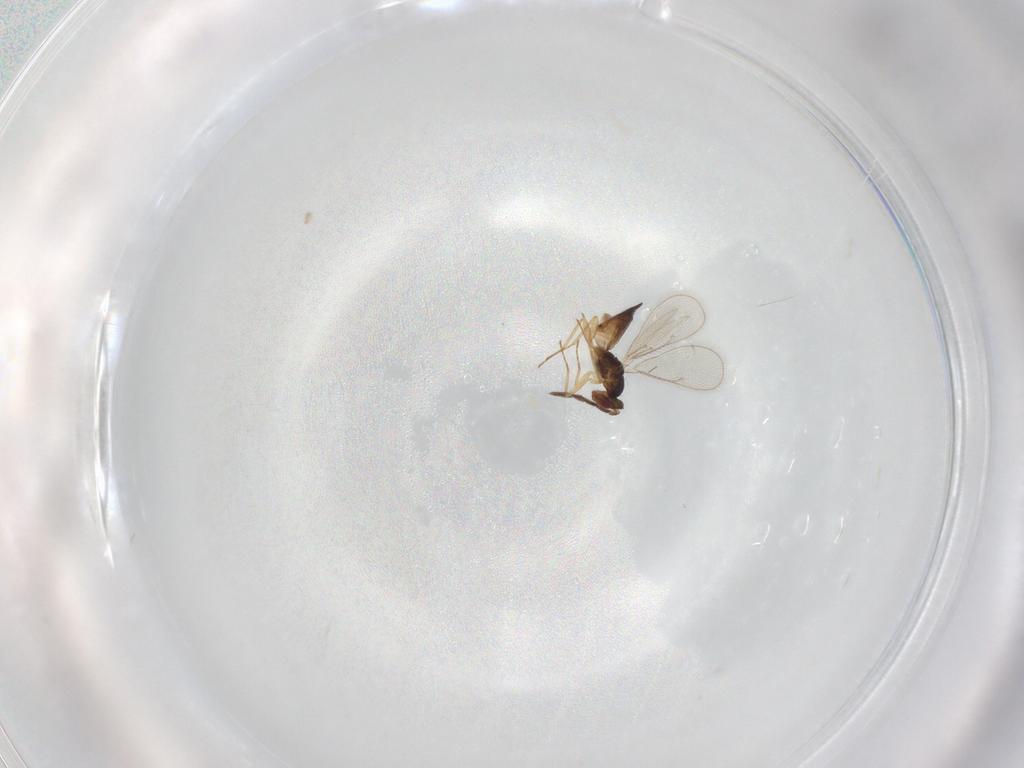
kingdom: Animalia
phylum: Arthropoda
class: Insecta
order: Hymenoptera
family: Eulophidae
